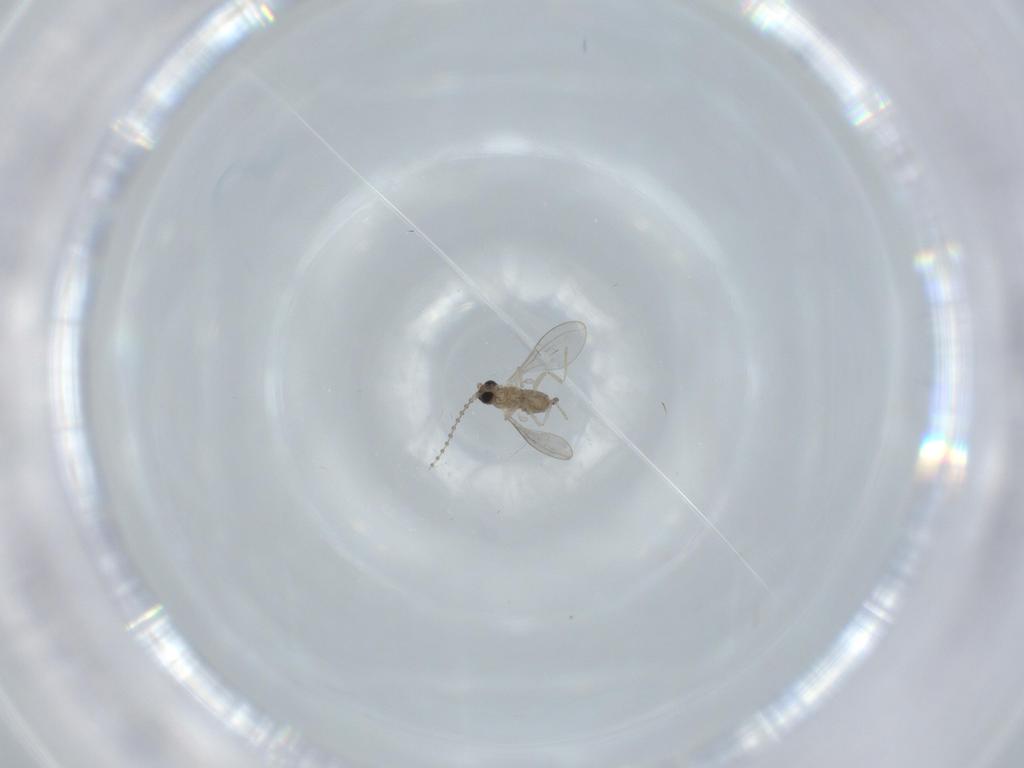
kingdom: Animalia
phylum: Arthropoda
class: Insecta
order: Diptera
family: Cecidomyiidae
